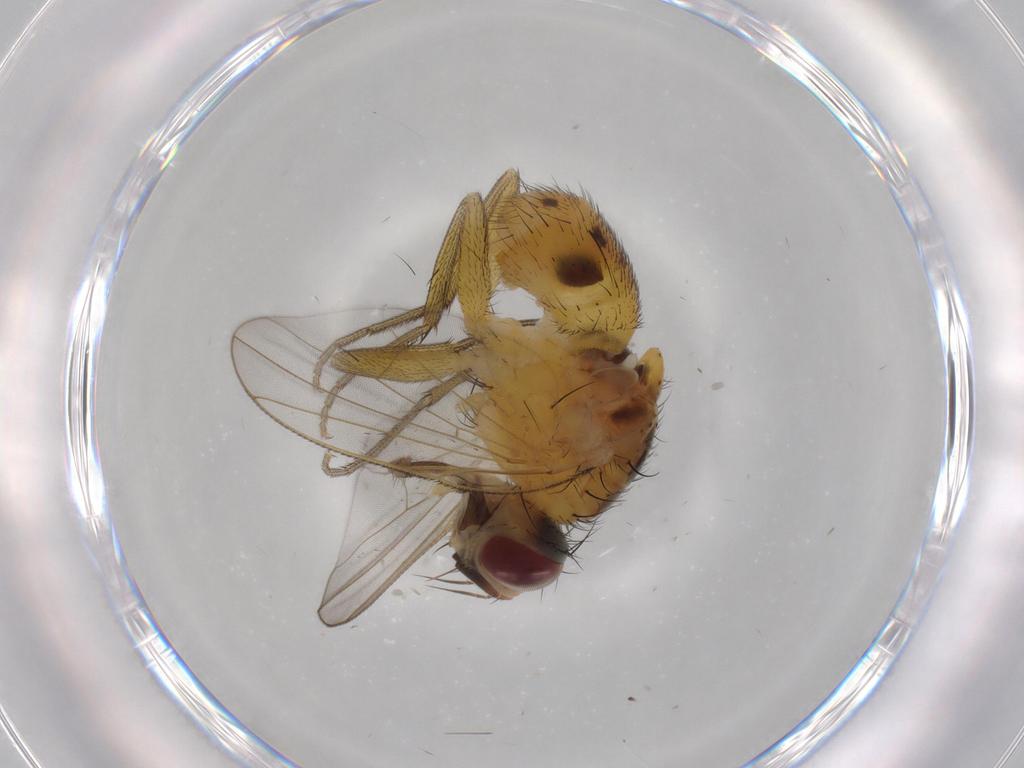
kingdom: Animalia
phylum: Arthropoda
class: Insecta
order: Diptera
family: Muscidae
